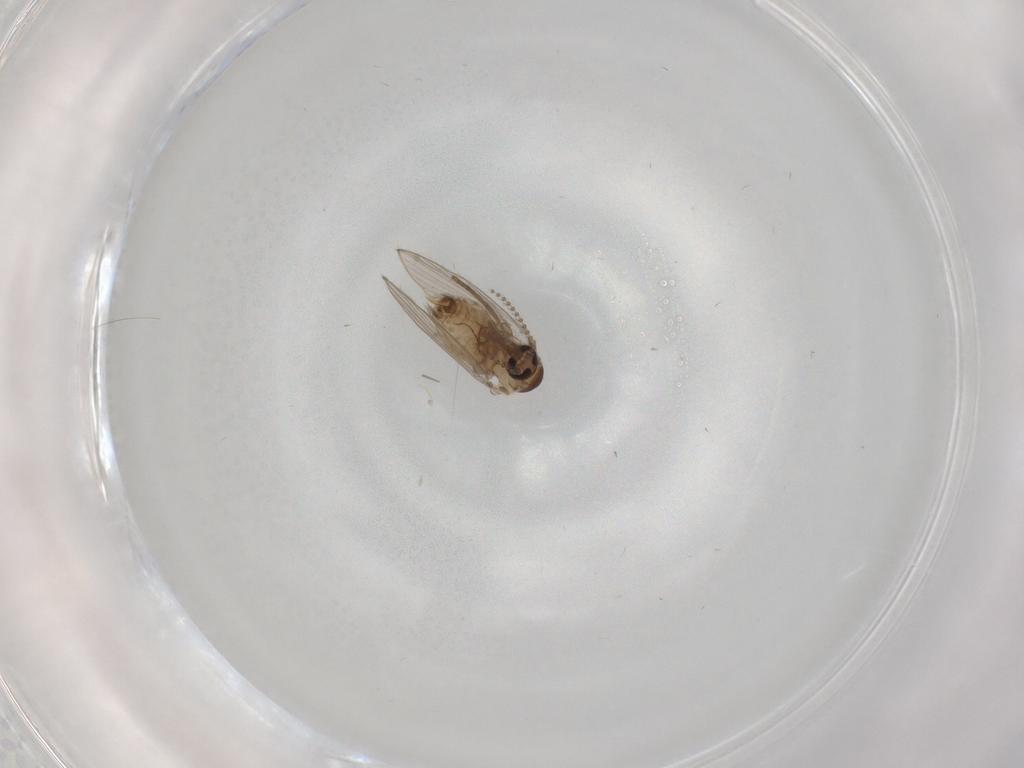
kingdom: Animalia
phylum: Arthropoda
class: Insecta
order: Diptera
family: Psychodidae
